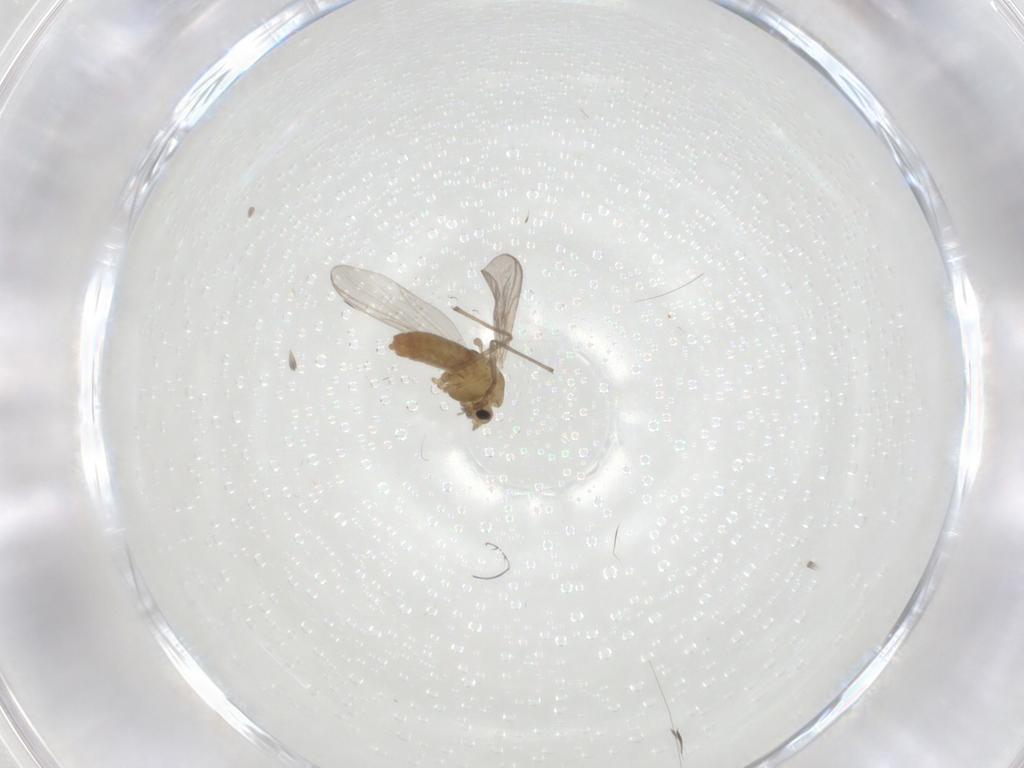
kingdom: Animalia
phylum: Arthropoda
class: Insecta
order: Diptera
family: Chironomidae
